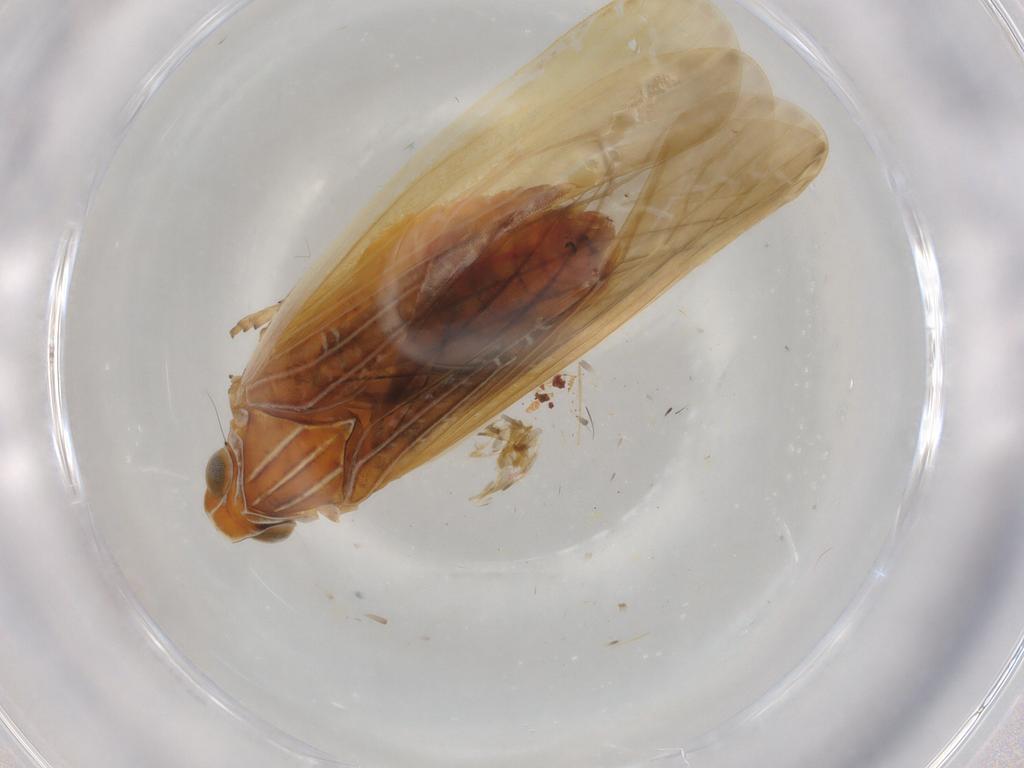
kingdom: Animalia
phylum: Arthropoda
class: Insecta
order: Hemiptera
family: Achilidae
